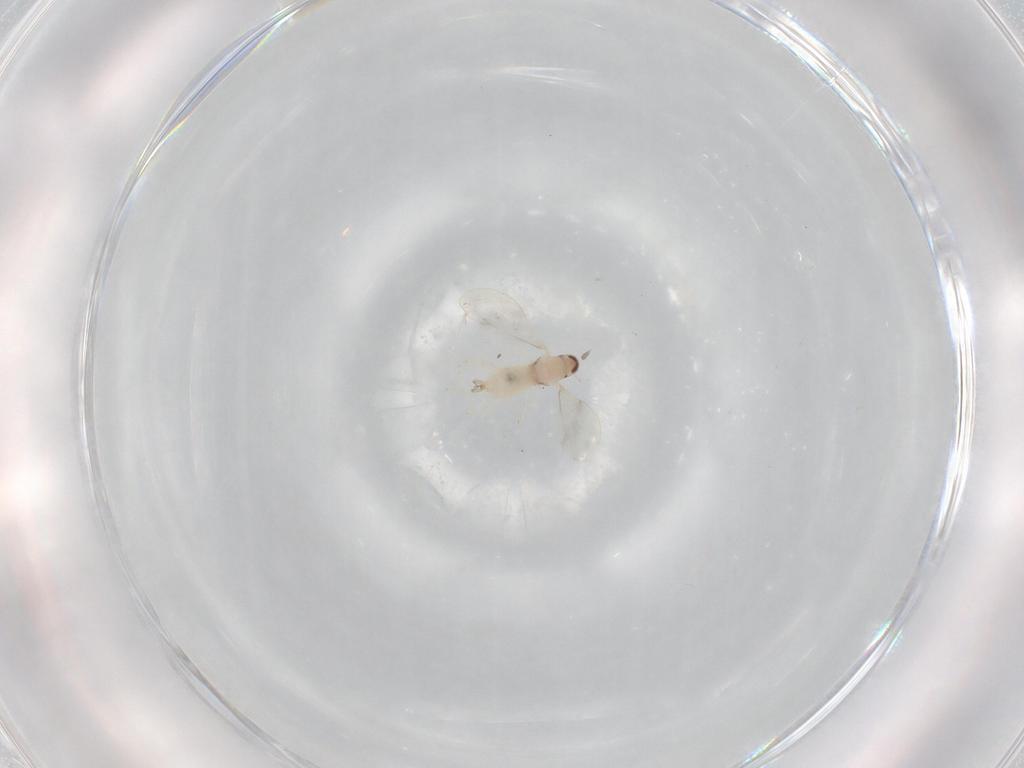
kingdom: Animalia
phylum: Arthropoda
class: Insecta
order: Diptera
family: Cecidomyiidae
